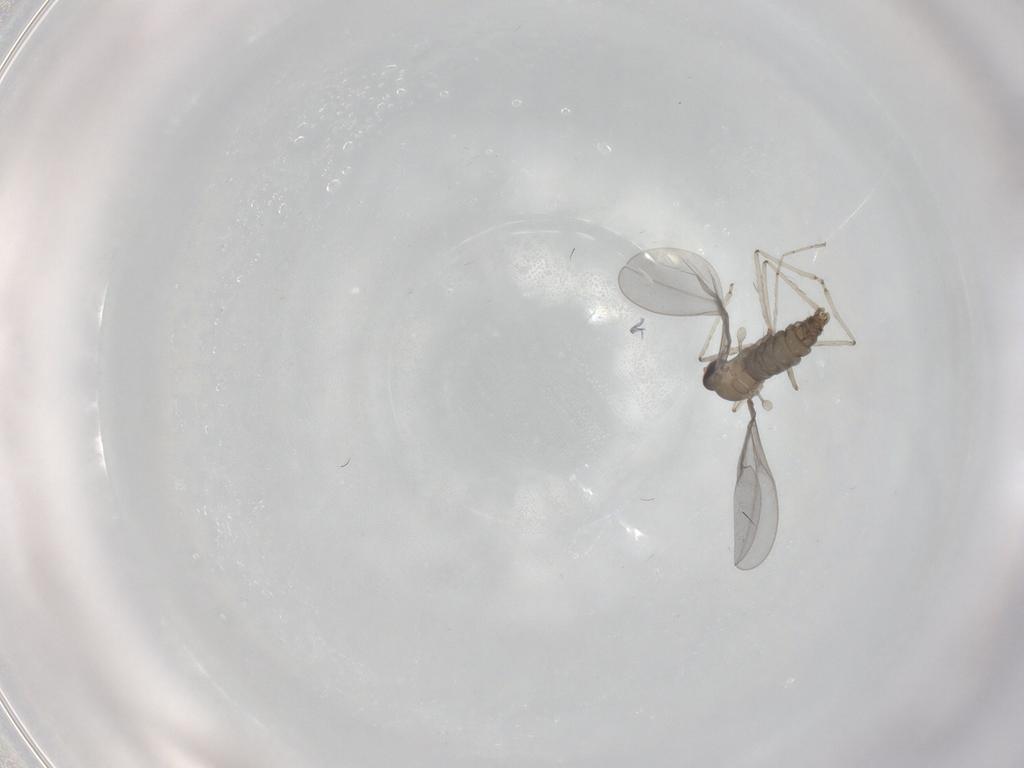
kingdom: Animalia
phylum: Arthropoda
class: Insecta
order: Diptera
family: Cecidomyiidae
